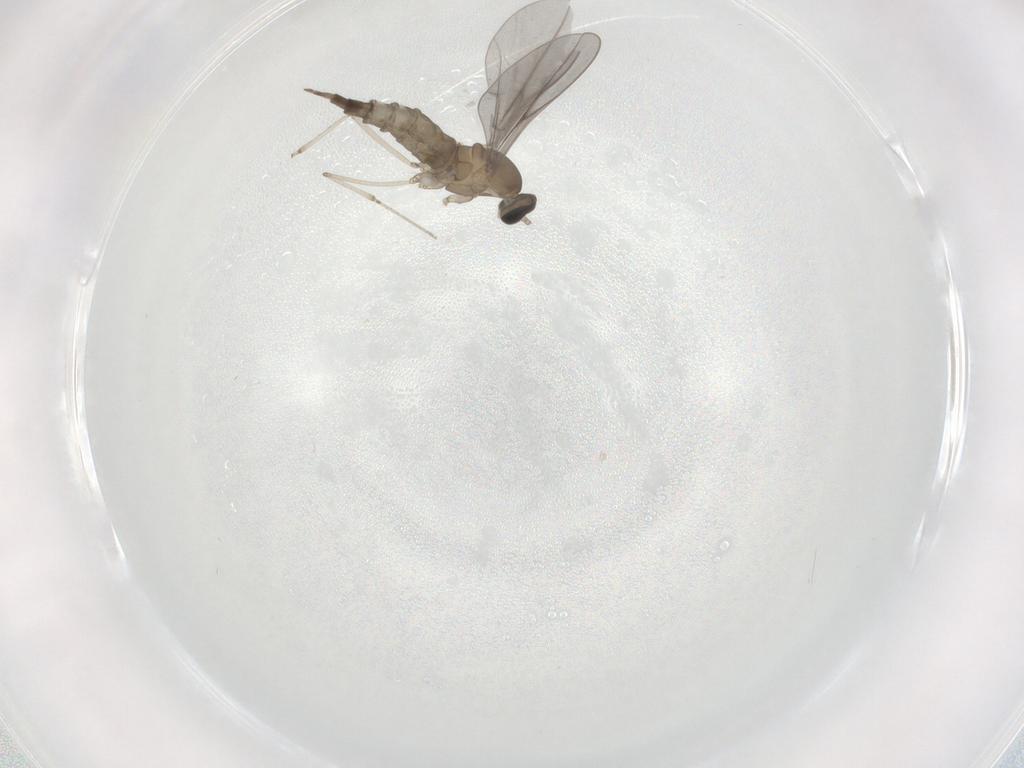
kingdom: Animalia
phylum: Arthropoda
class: Insecta
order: Diptera
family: Cecidomyiidae
